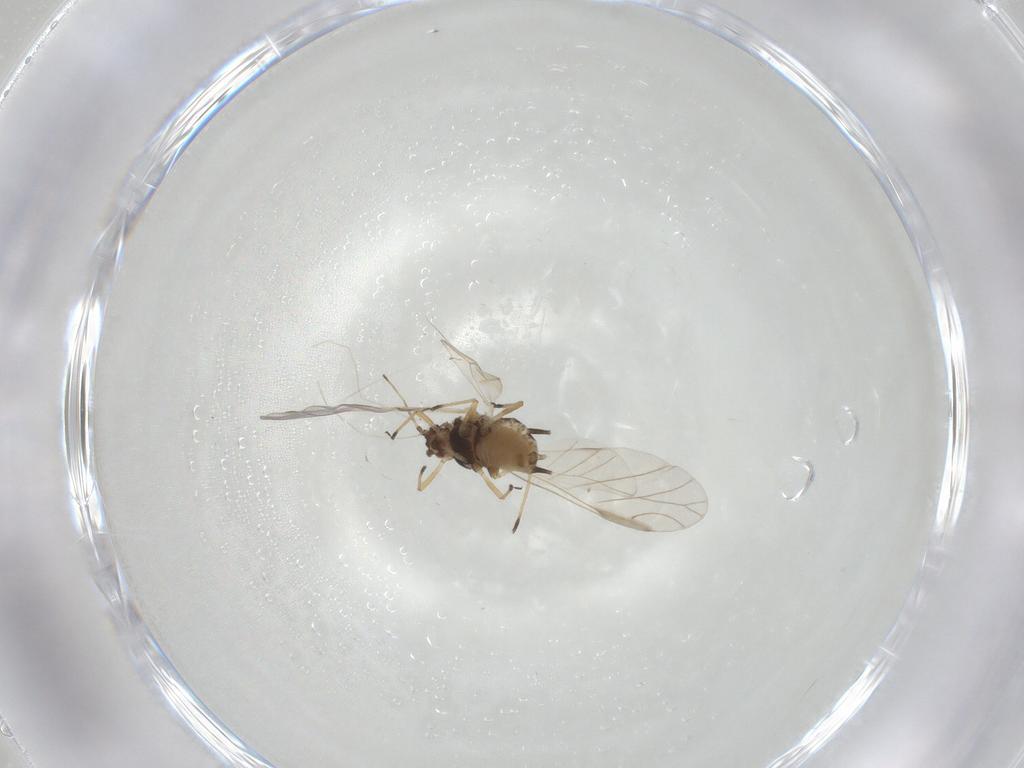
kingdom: Animalia
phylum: Arthropoda
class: Insecta
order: Hemiptera
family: Aphididae
